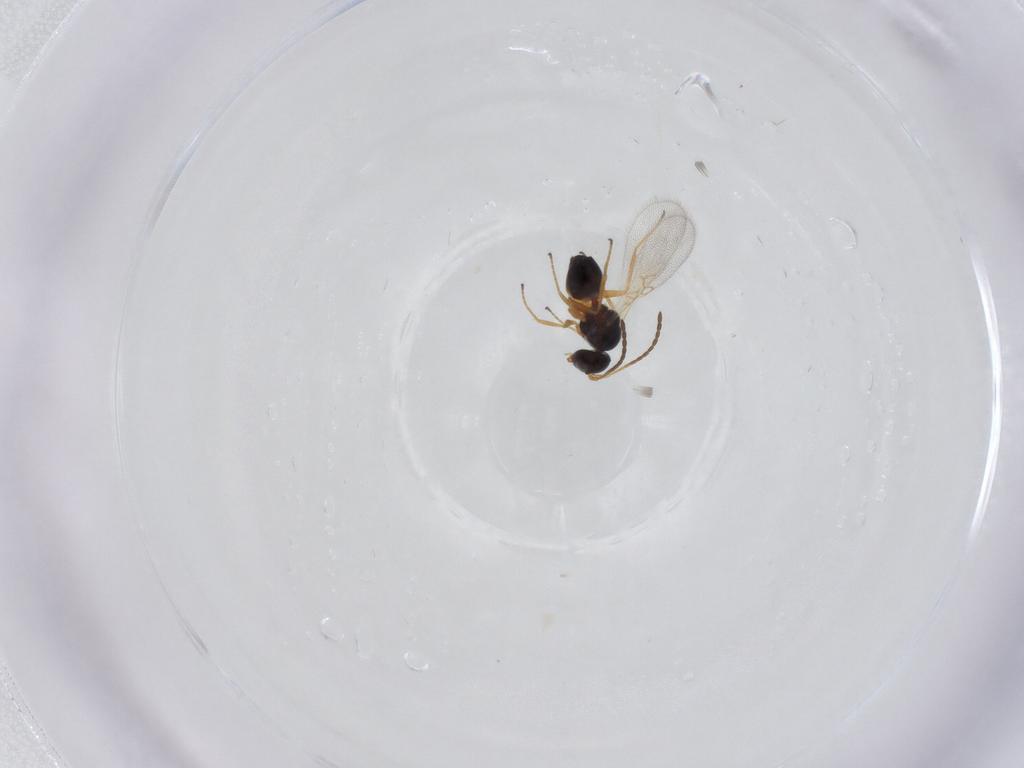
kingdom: Animalia
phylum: Arthropoda
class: Insecta
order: Hymenoptera
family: Figitidae
